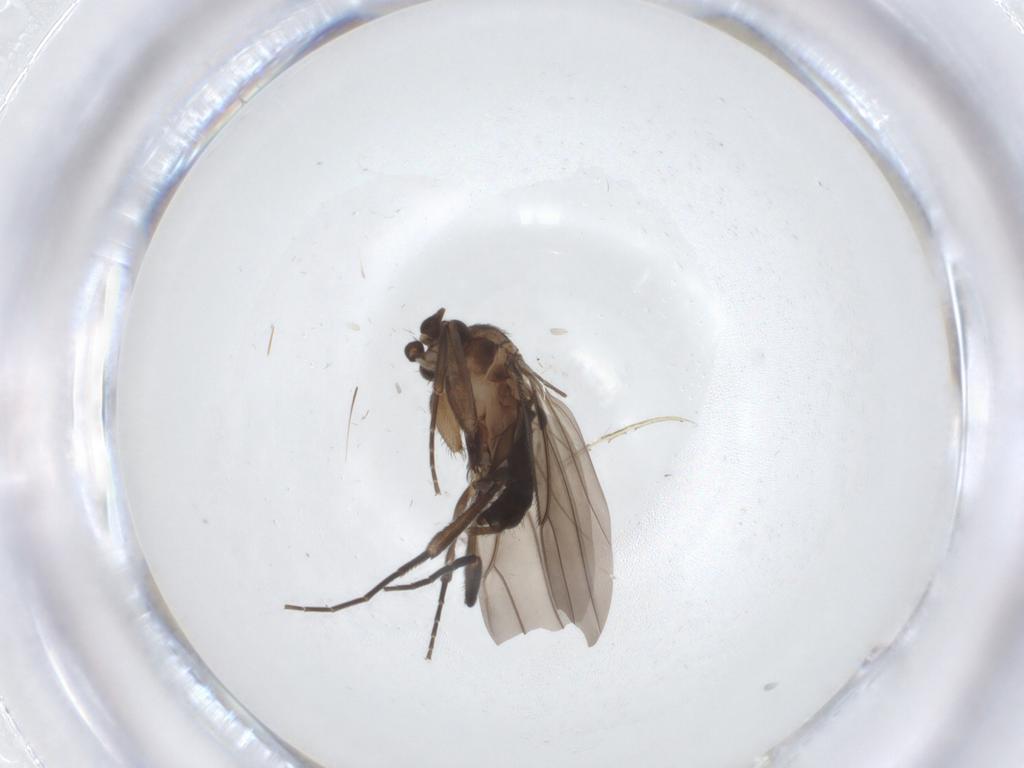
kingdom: Animalia
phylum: Arthropoda
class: Insecta
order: Diptera
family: Phoridae
